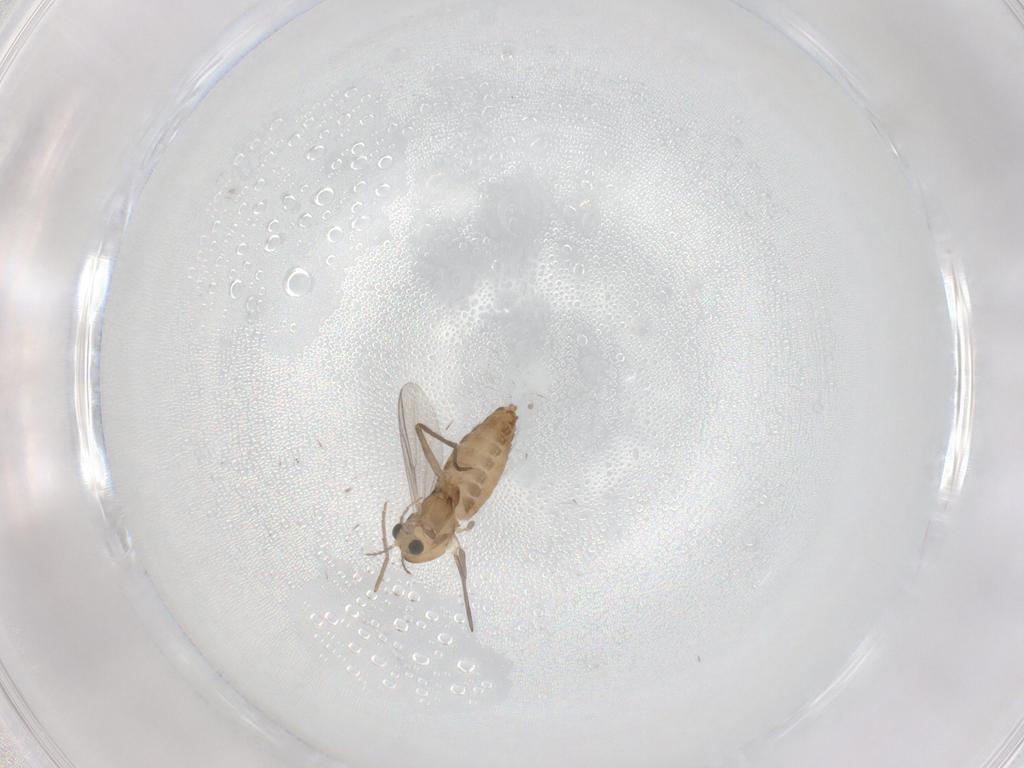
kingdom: Animalia
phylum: Arthropoda
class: Insecta
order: Diptera
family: Chironomidae
